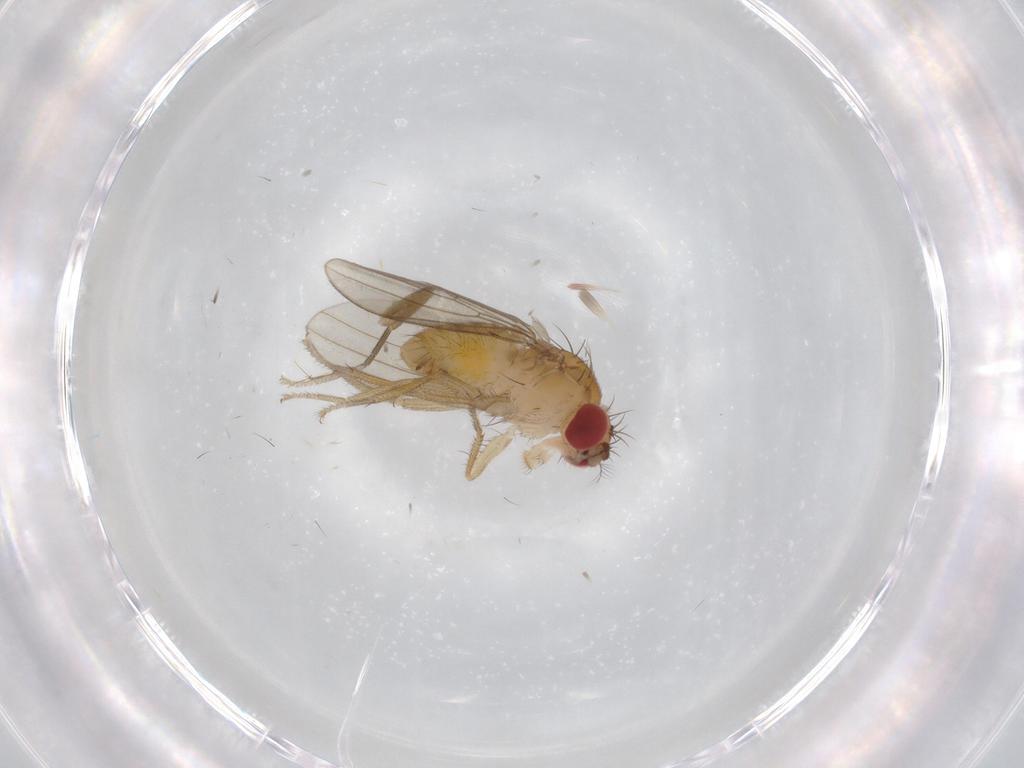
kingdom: Animalia
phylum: Arthropoda
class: Insecta
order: Diptera
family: Drosophilidae
